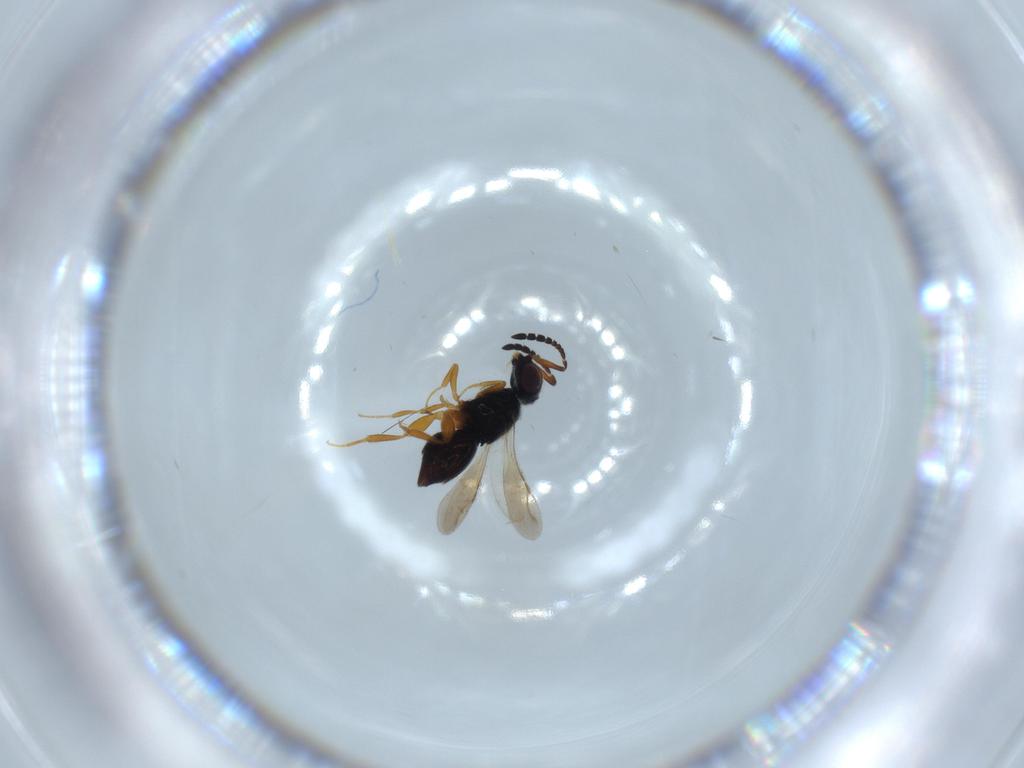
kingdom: Animalia
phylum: Arthropoda
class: Insecta
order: Hymenoptera
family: Ceraphronidae
